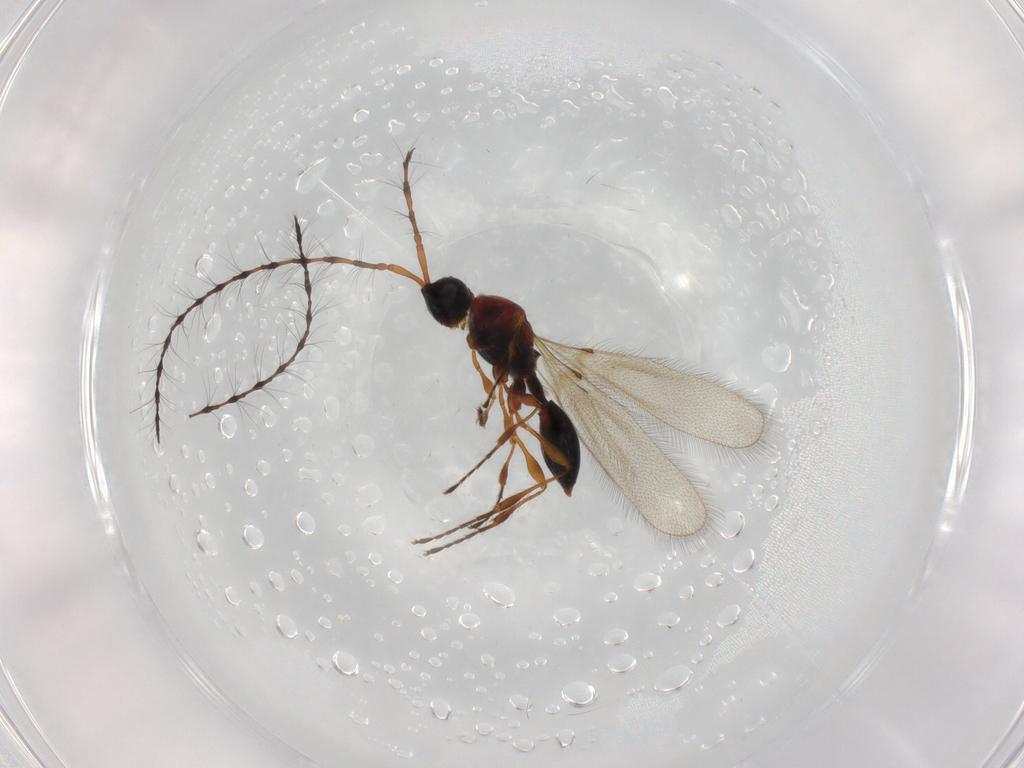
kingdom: Animalia
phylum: Arthropoda
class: Insecta
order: Hymenoptera
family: Diapriidae
